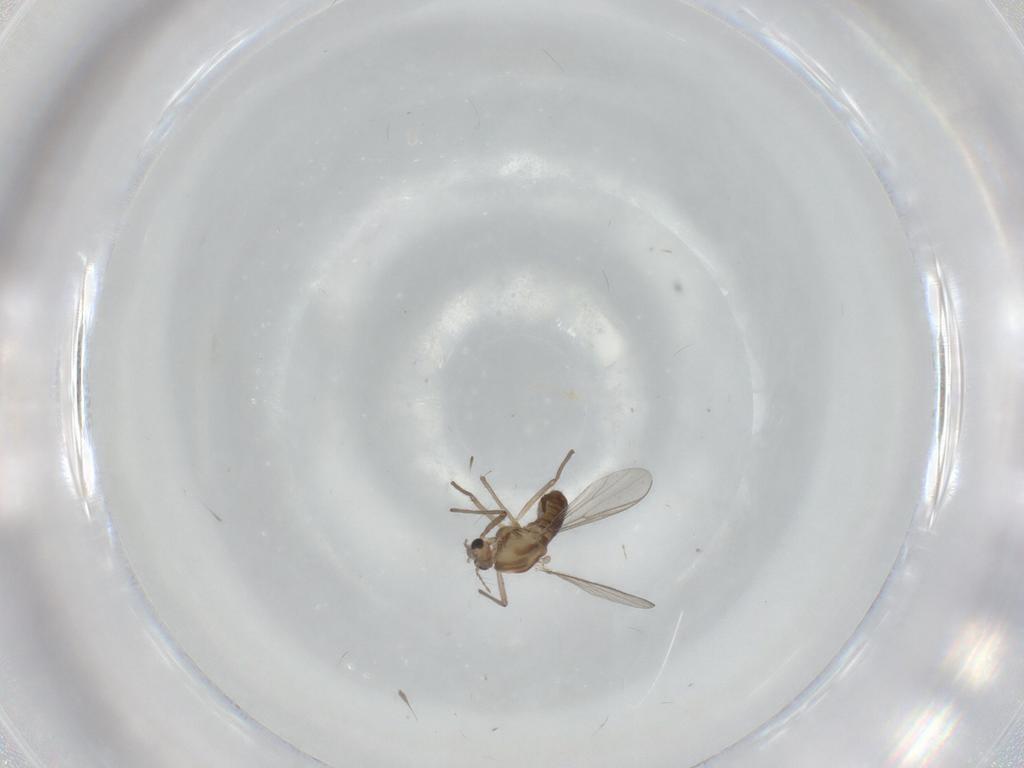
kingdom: Animalia
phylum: Arthropoda
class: Insecta
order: Diptera
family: Chironomidae
